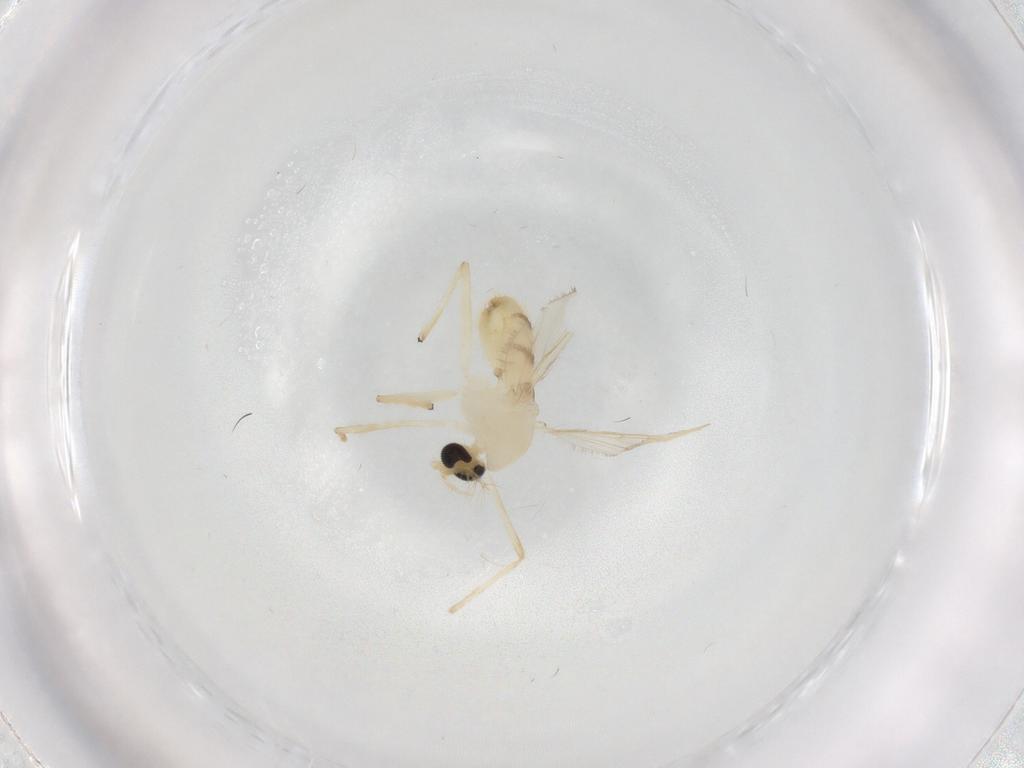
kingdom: Animalia
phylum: Arthropoda
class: Insecta
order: Diptera
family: Chironomidae
